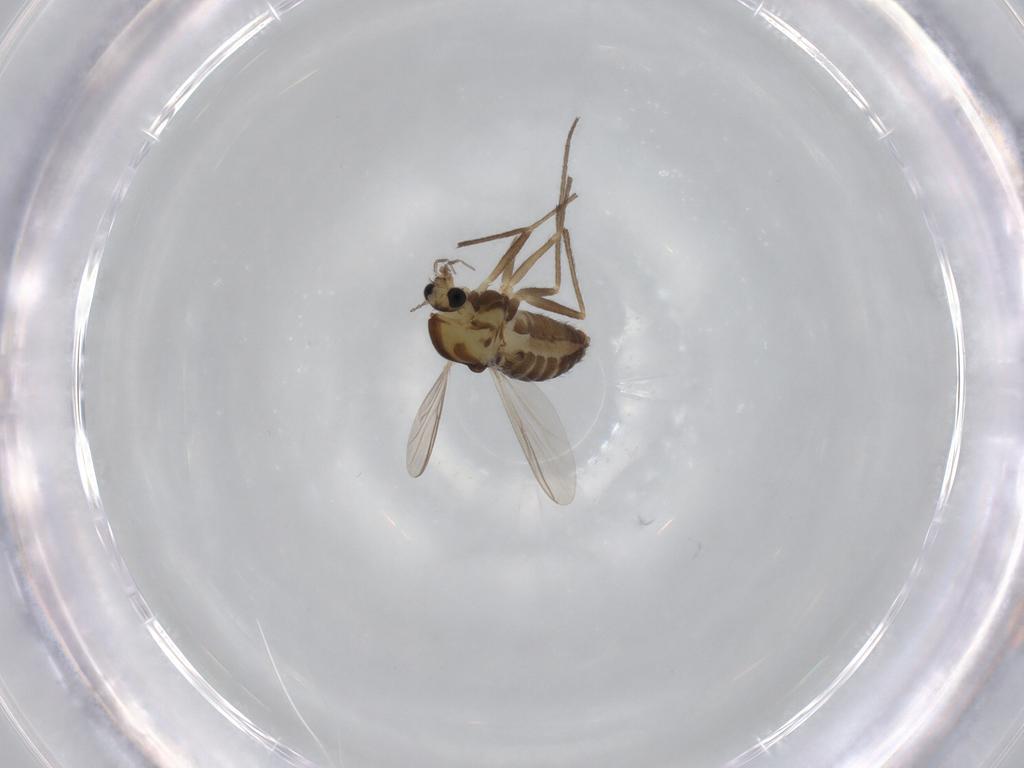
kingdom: Animalia
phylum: Arthropoda
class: Insecta
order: Diptera
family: Chironomidae
